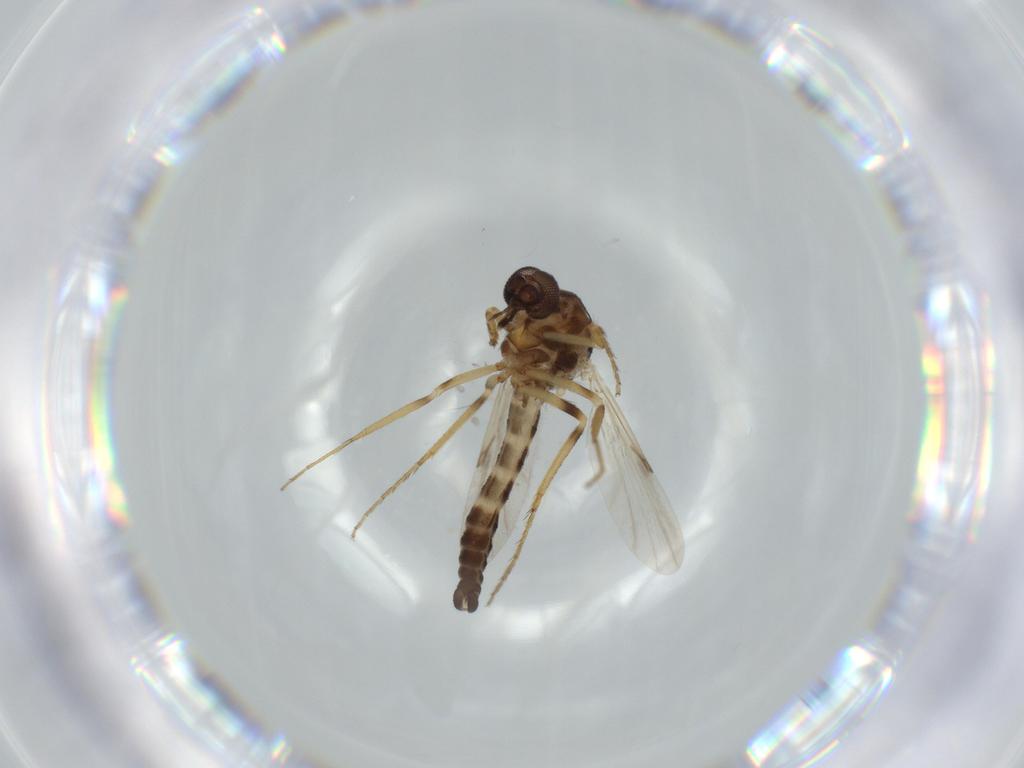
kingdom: Animalia
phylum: Arthropoda
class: Insecta
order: Diptera
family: Ceratopogonidae
